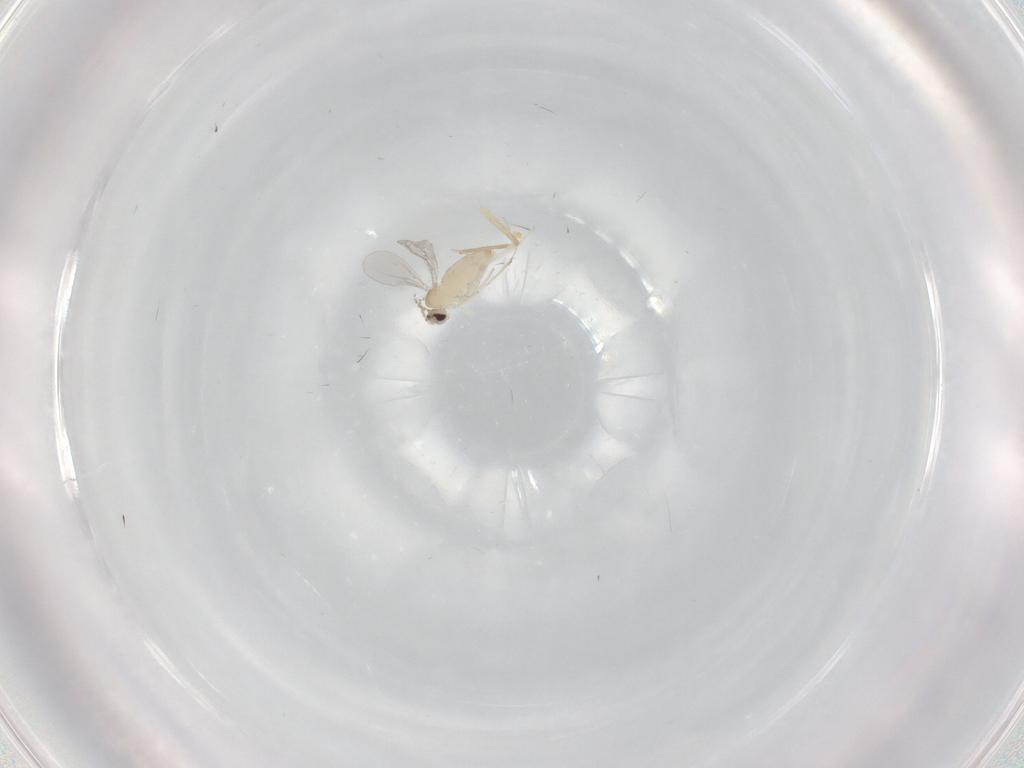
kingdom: Animalia
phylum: Arthropoda
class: Insecta
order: Diptera
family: Cecidomyiidae
